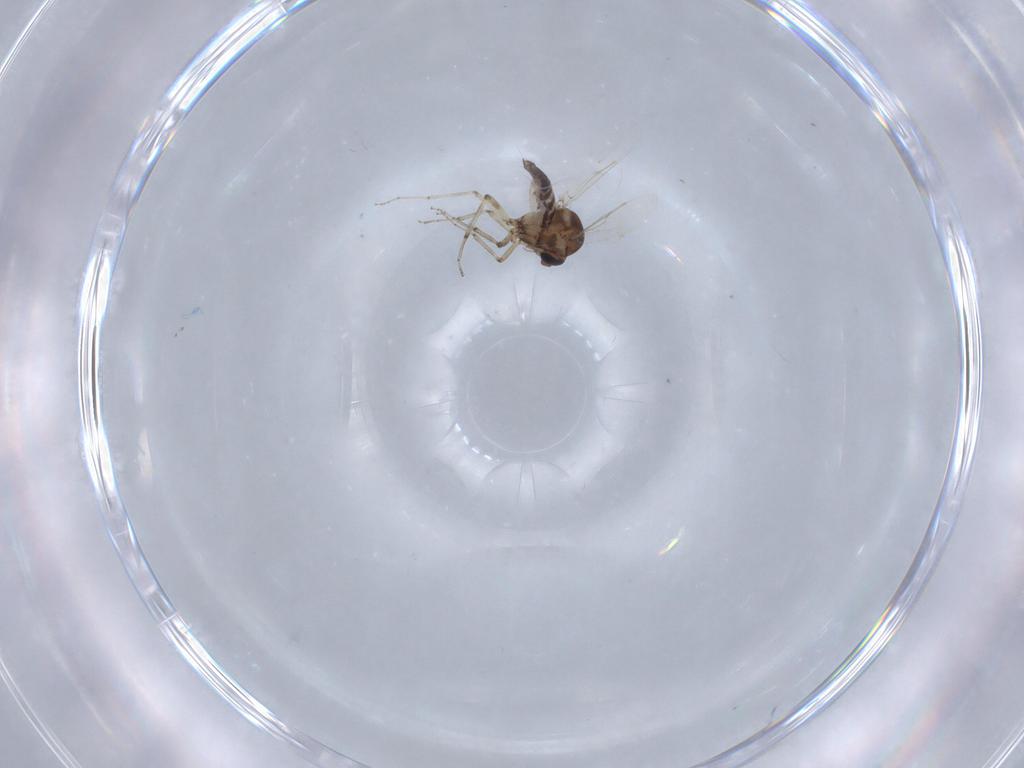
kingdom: Animalia
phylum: Arthropoda
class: Insecta
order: Diptera
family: Ceratopogonidae
